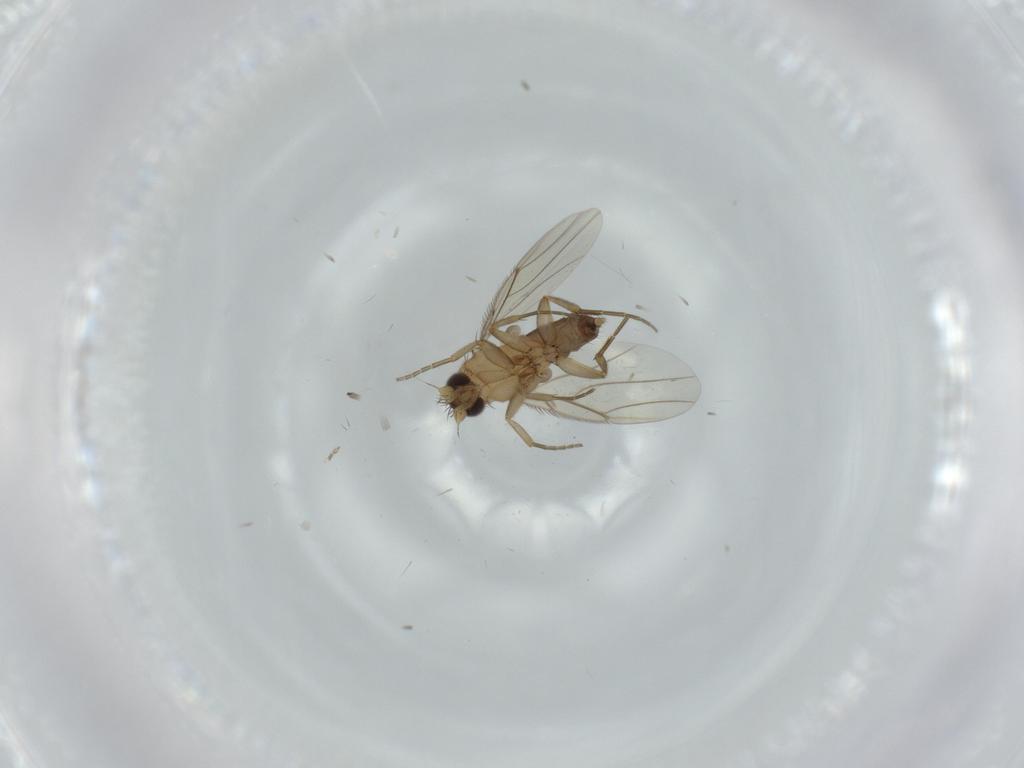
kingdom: Animalia
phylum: Arthropoda
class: Insecta
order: Diptera
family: Phoridae
